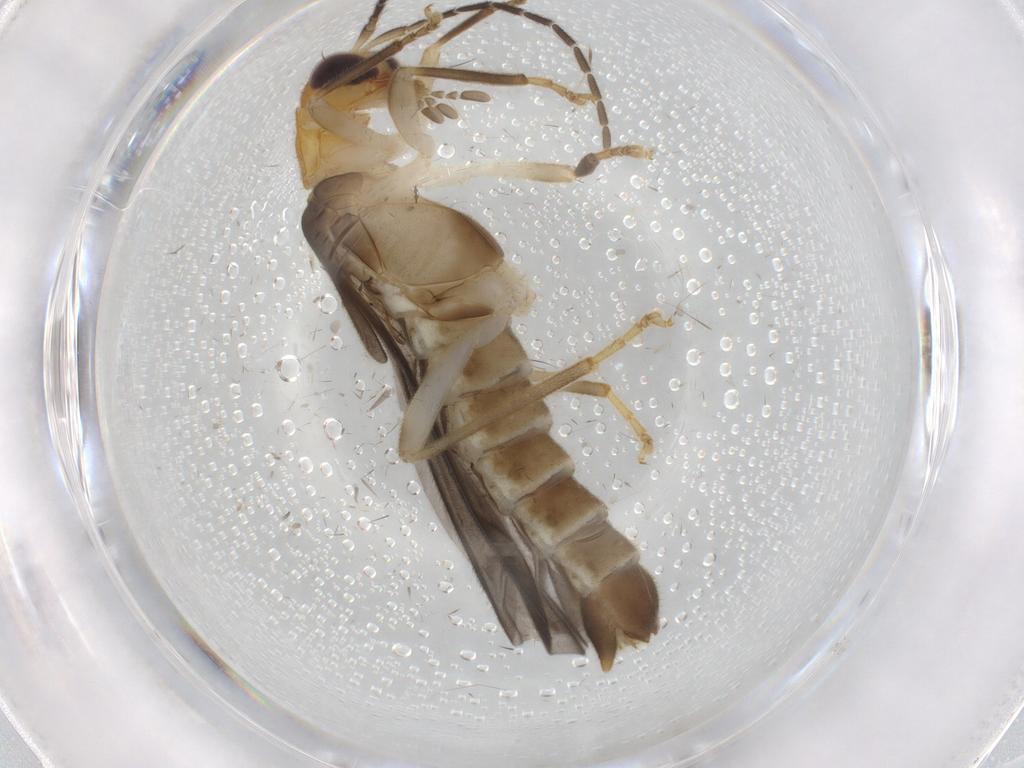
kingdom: Animalia
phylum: Arthropoda
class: Insecta
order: Coleoptera
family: Cantharidae
